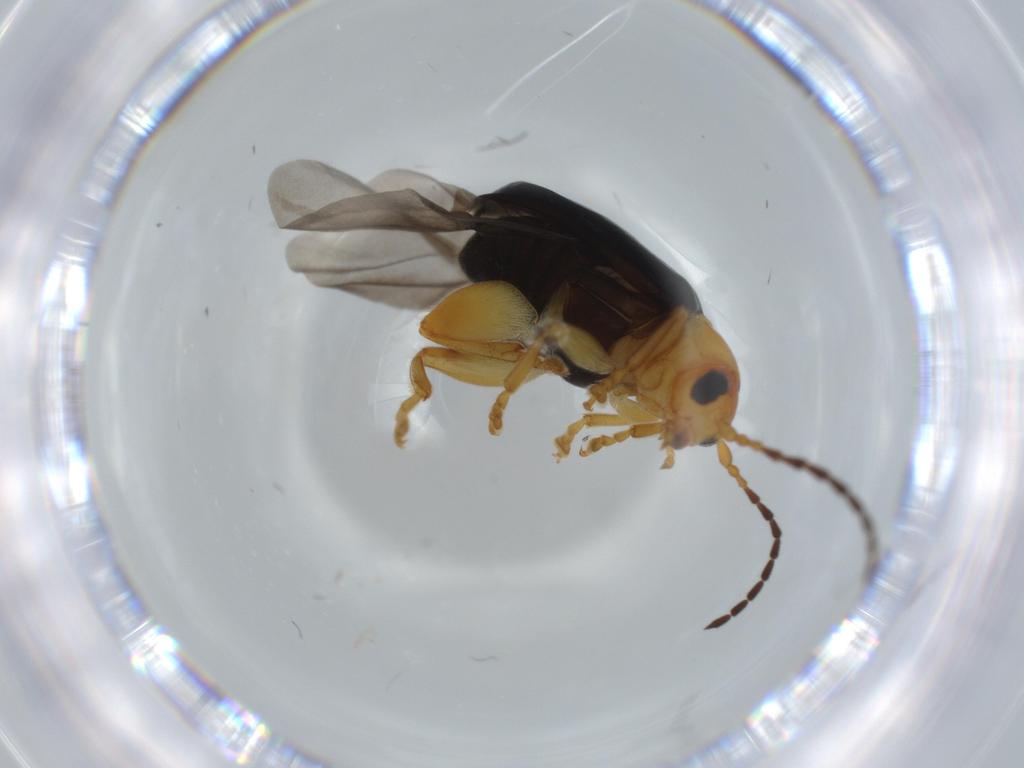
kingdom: Animalia
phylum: Arthropoda
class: Insecta
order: Coleoptera
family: Chrysomelidae
